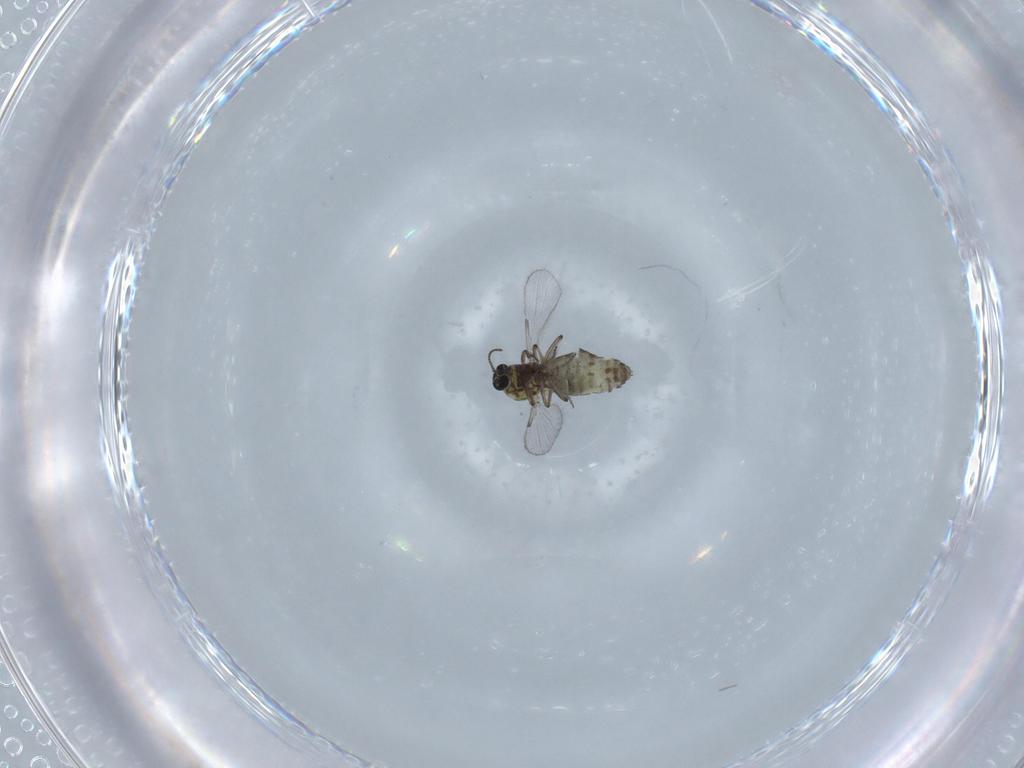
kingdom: Animalia
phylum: Arthropoda
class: Insecta
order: Diptera
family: Ceratopogonidae
